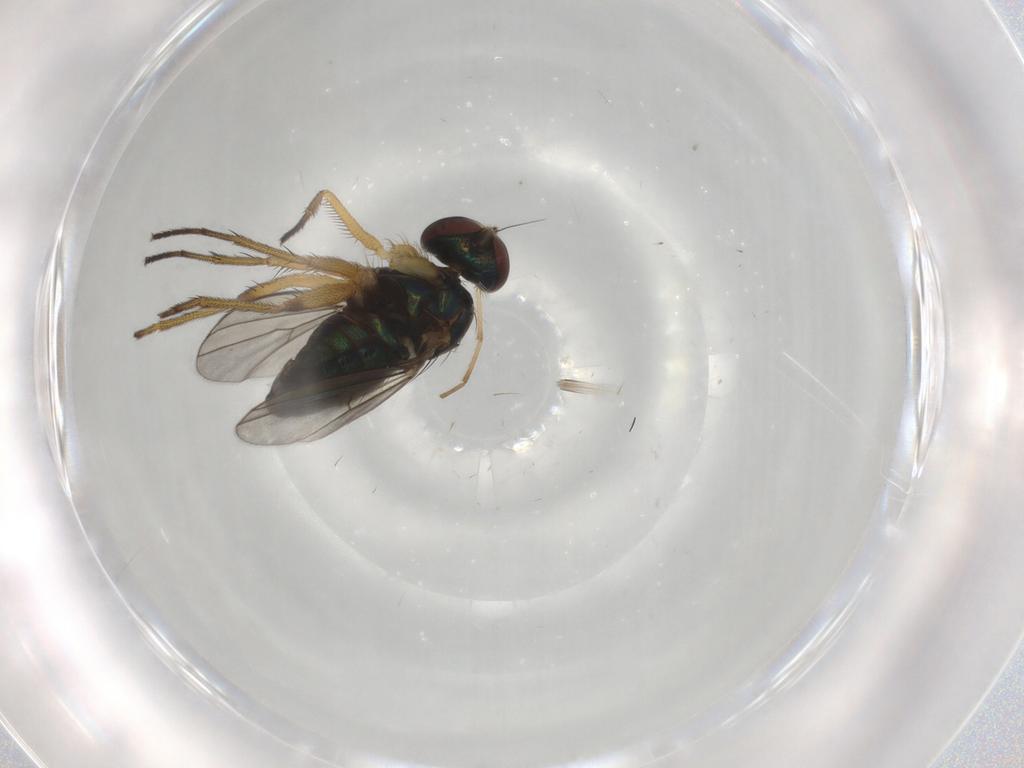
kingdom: Animalia
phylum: Arthropoda
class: Insecta
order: Diptera
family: Dolichopodidae
